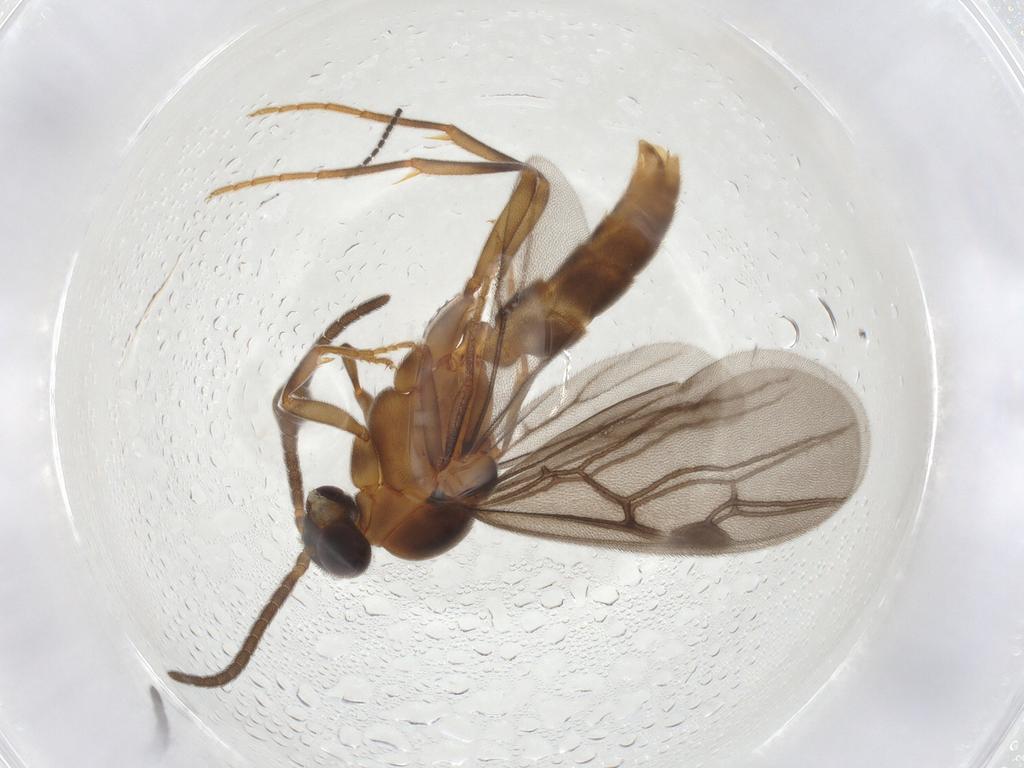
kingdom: Animalia
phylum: Arthropoda
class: Insecta
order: Hymenoptera
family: Formicidae
